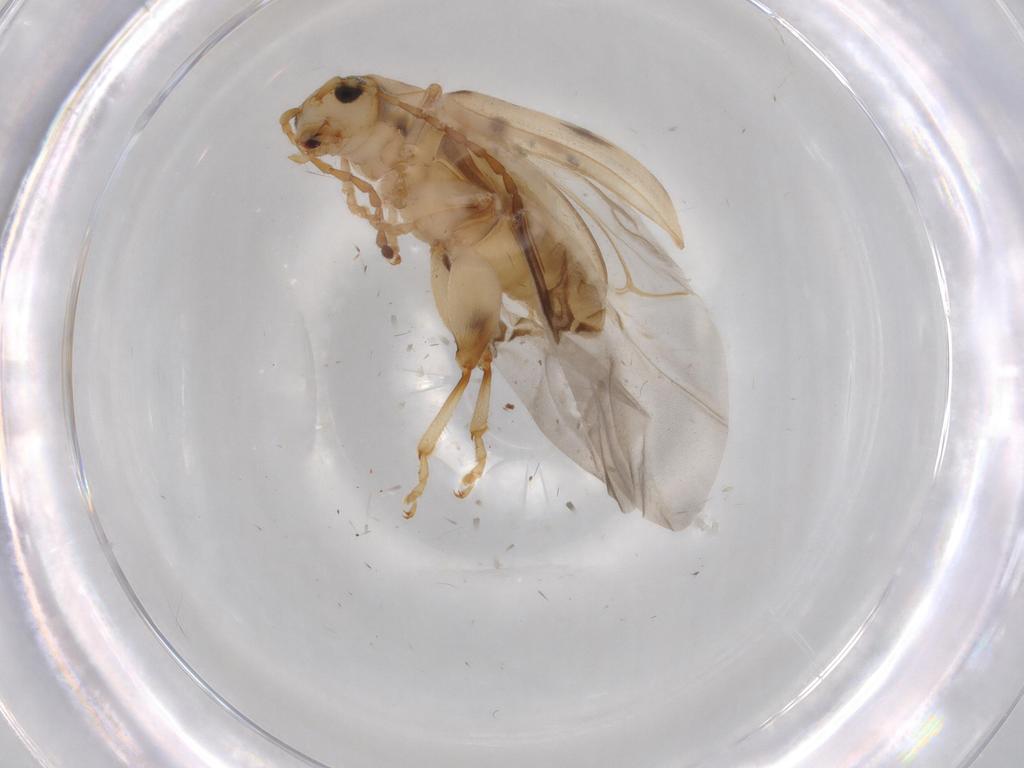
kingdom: Animalia
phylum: Arthropoda
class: Insecta
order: Coleoptera
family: Chrysomelidae
